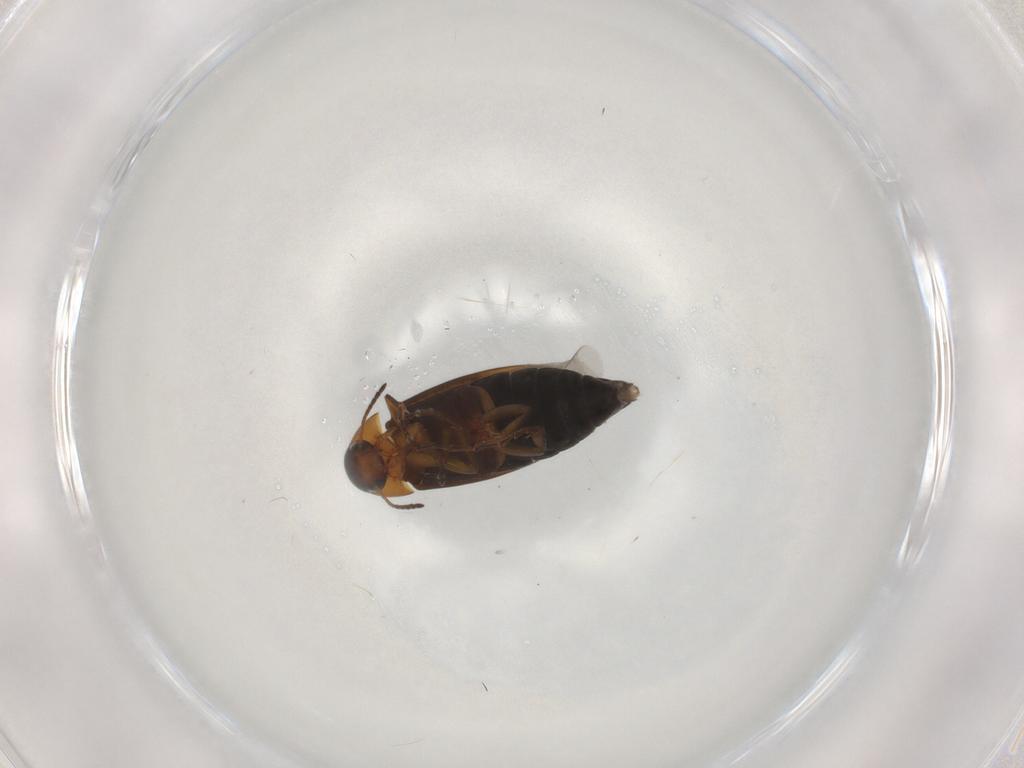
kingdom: Animalia
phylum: Arthropoda
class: Insecta
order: Coleoptera
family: Scraptiidae
